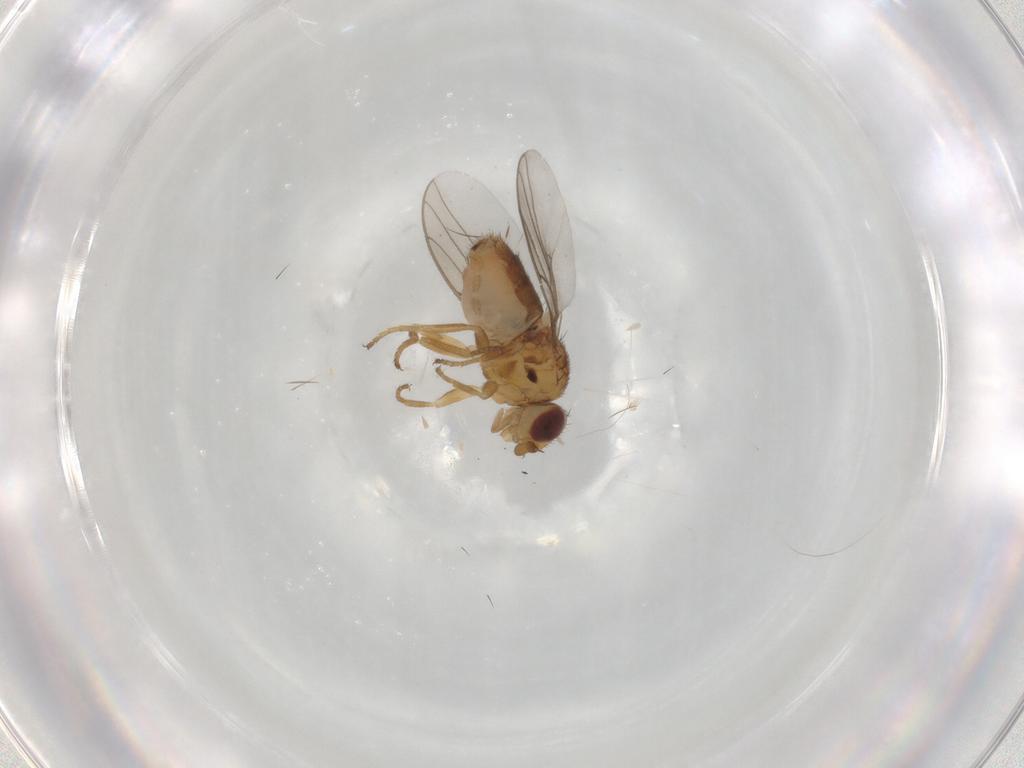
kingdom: Animalia
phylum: Arthropoda
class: Insecta
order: Diptera
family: Chloropidae
